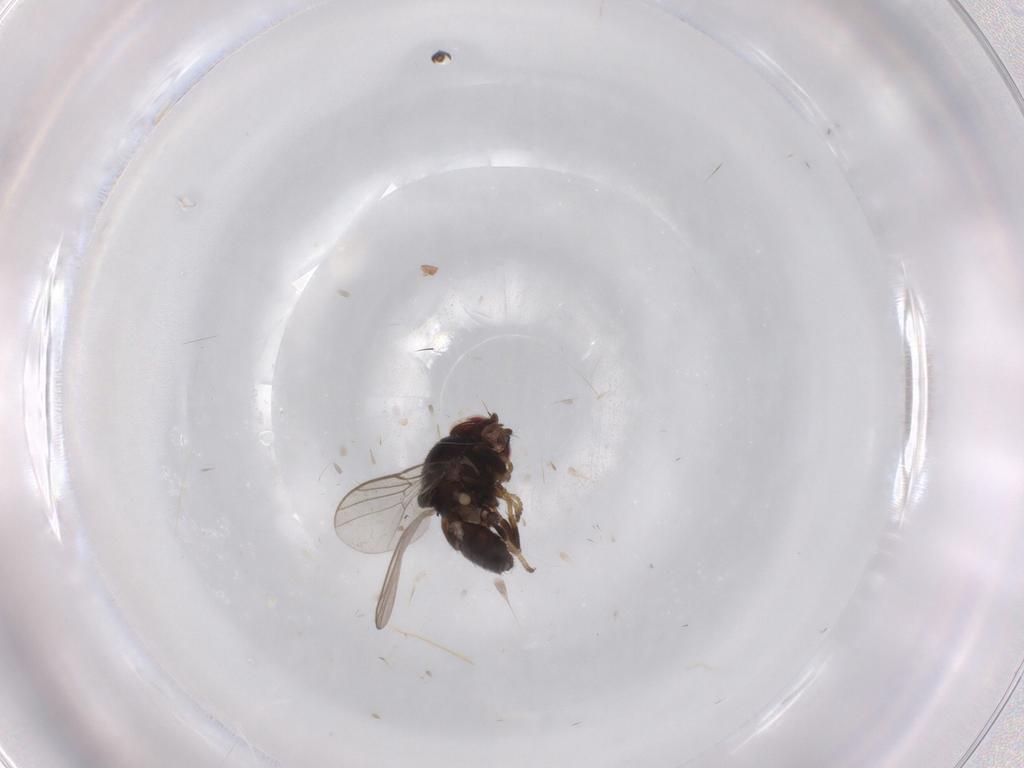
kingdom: Animalia
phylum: Arthropoda
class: Insecta
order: Diptera
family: Chloropidae
